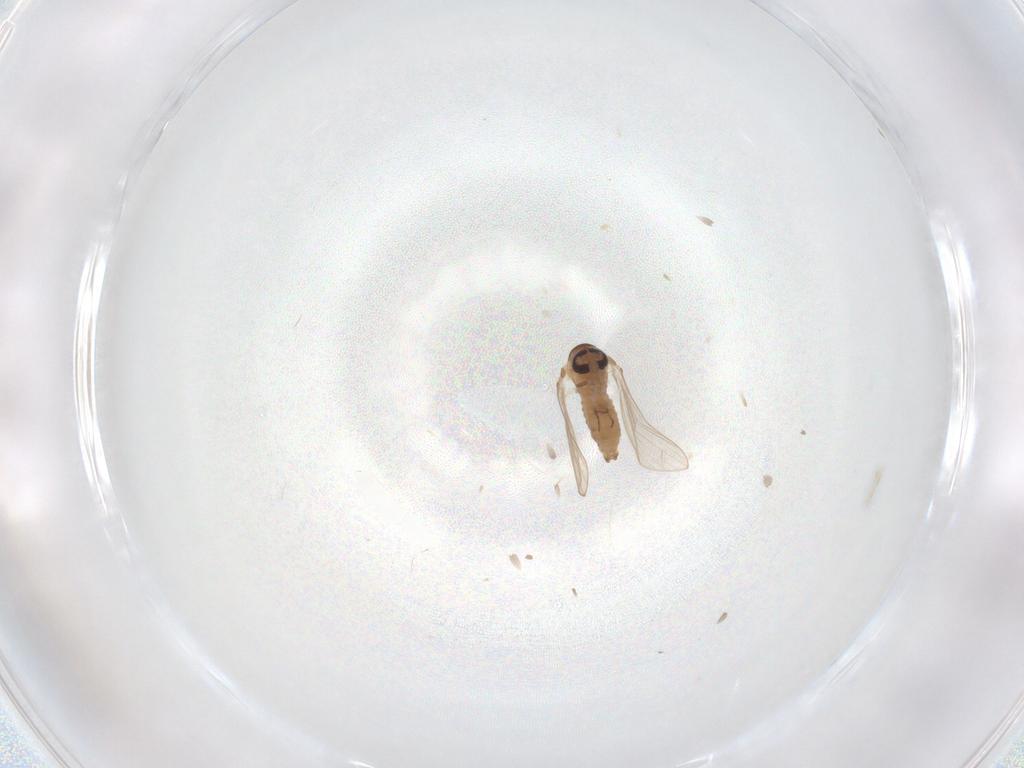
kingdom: Animalia
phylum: Arthropoda
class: Insecta
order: Diptera
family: Psychodidae
